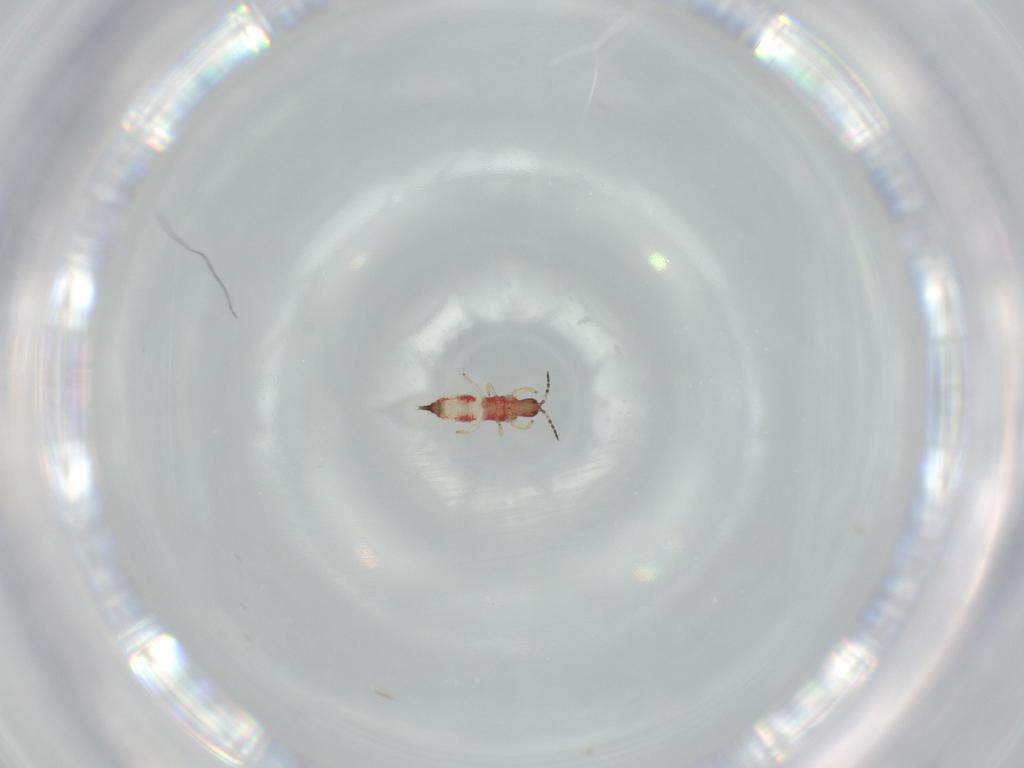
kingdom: Animalia
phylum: Arthropoda
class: Insecta
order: Thysanoptera
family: Phlaeothripidae
